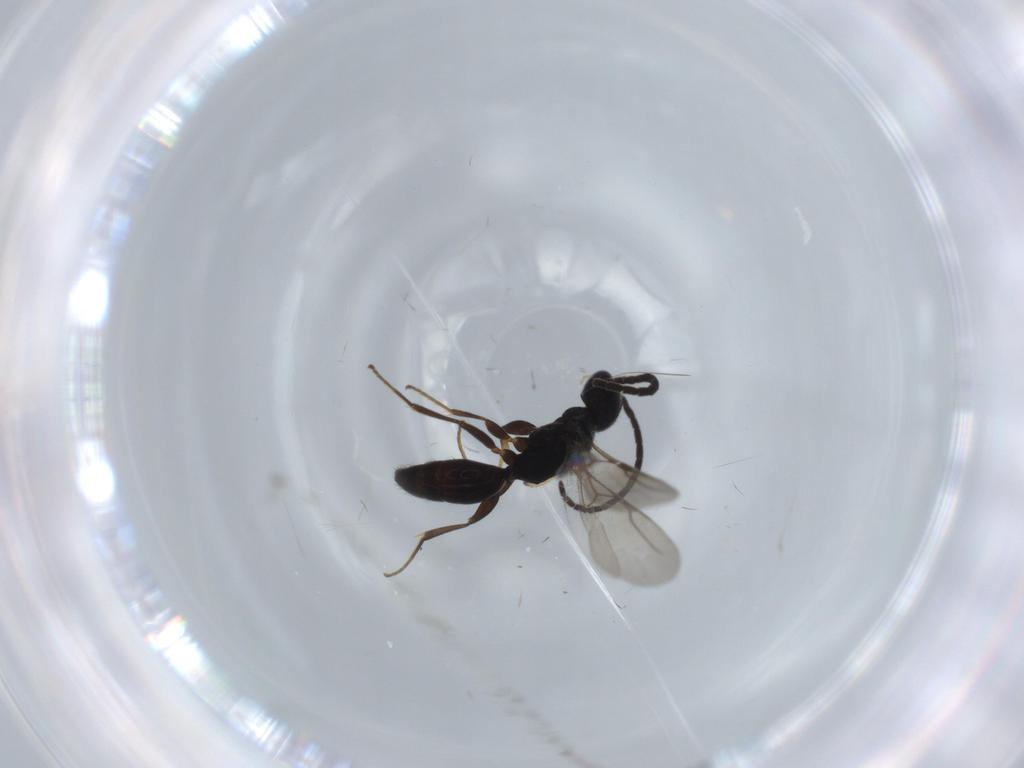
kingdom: Animalia
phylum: Arthropoda
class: Insecta
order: Hymenoptera
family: Bethylidae
